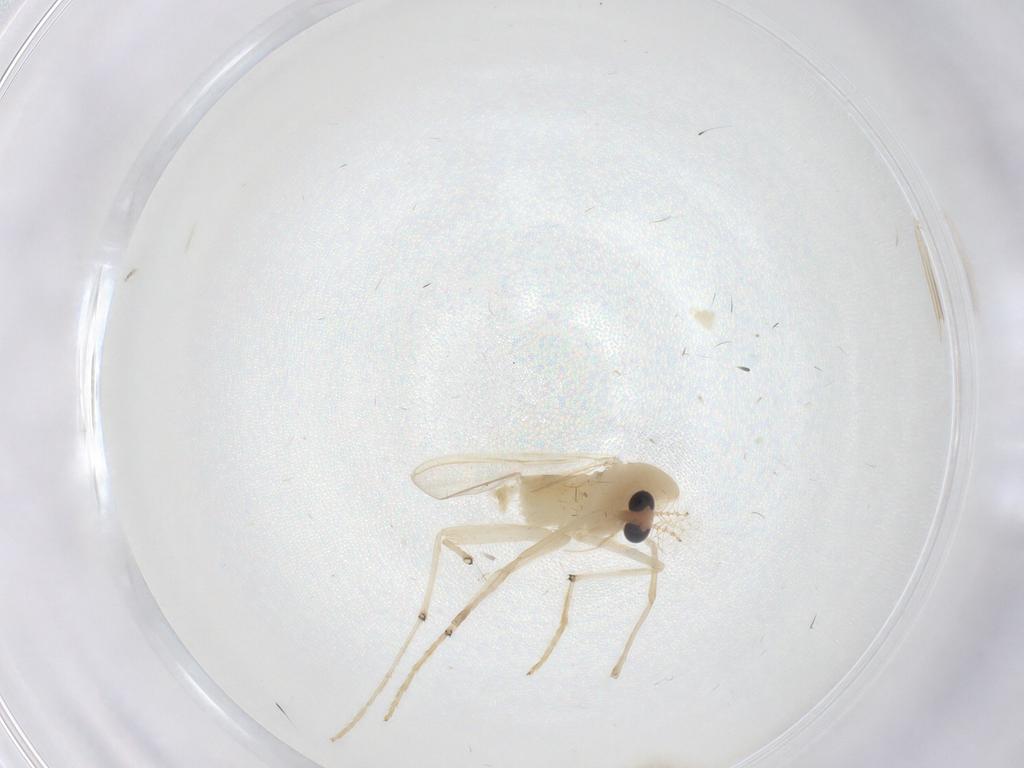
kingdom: Animalia
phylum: Arthropoda
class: Insecta
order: Diptera
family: Chironomidae
